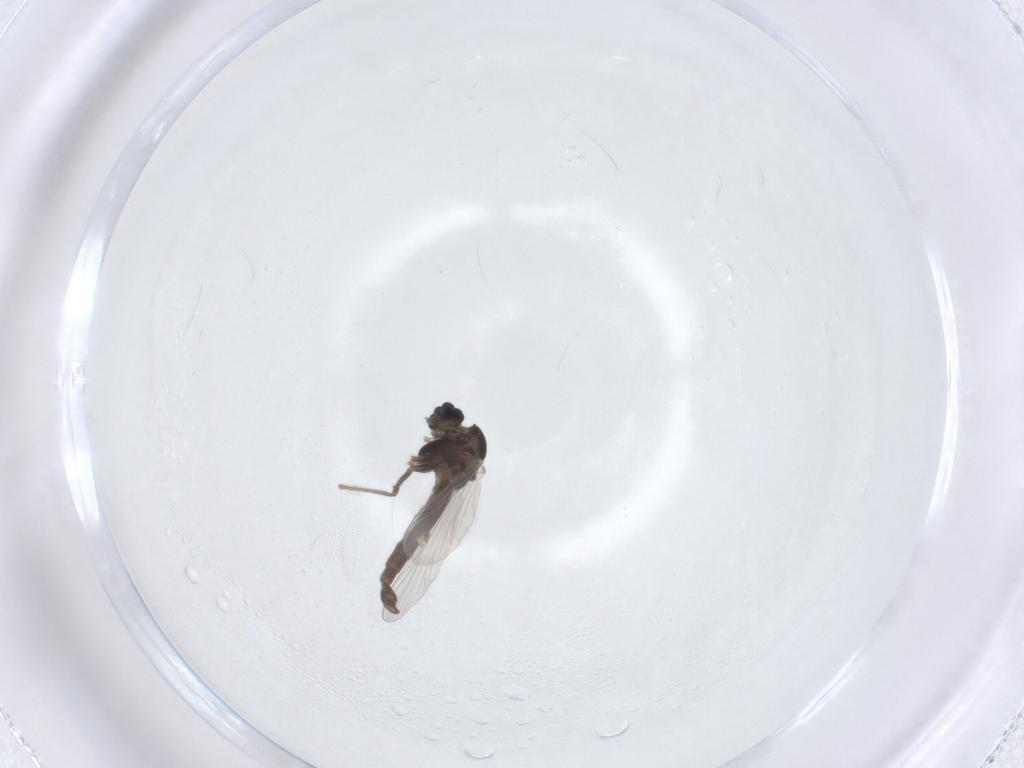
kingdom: Animalia
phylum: Arthropoda
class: Insecta
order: Diptera
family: Chironomidae
